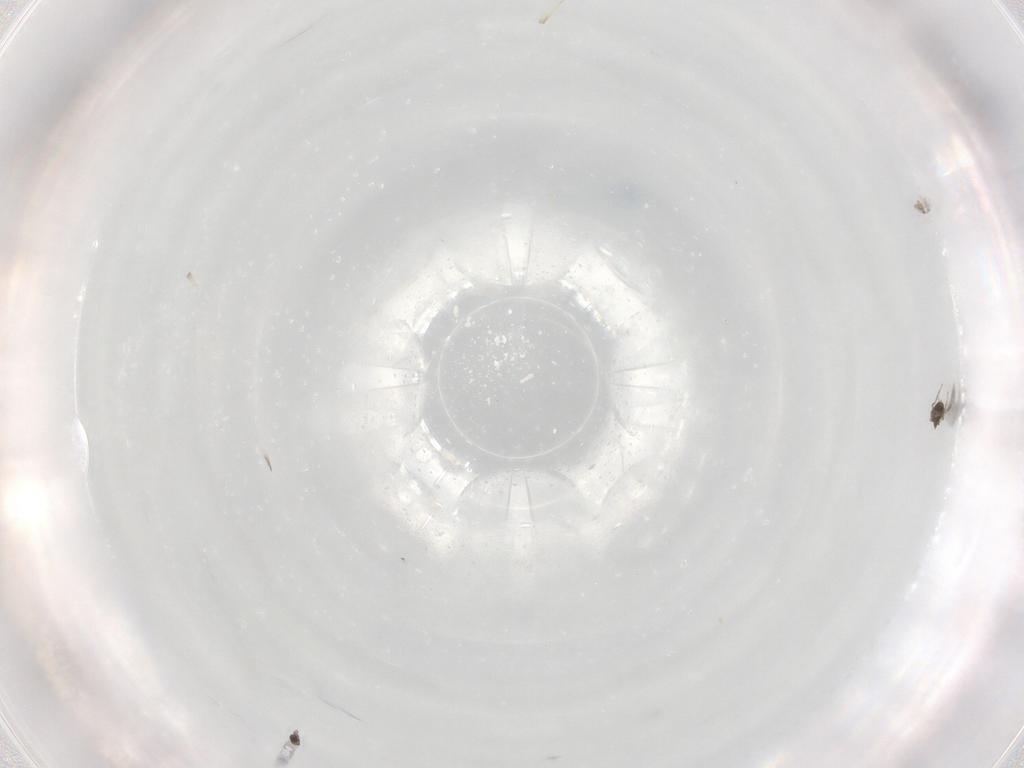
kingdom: Animalia
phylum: Arthropoda
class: Insecta
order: Hymenoptera
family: Mymaridae
